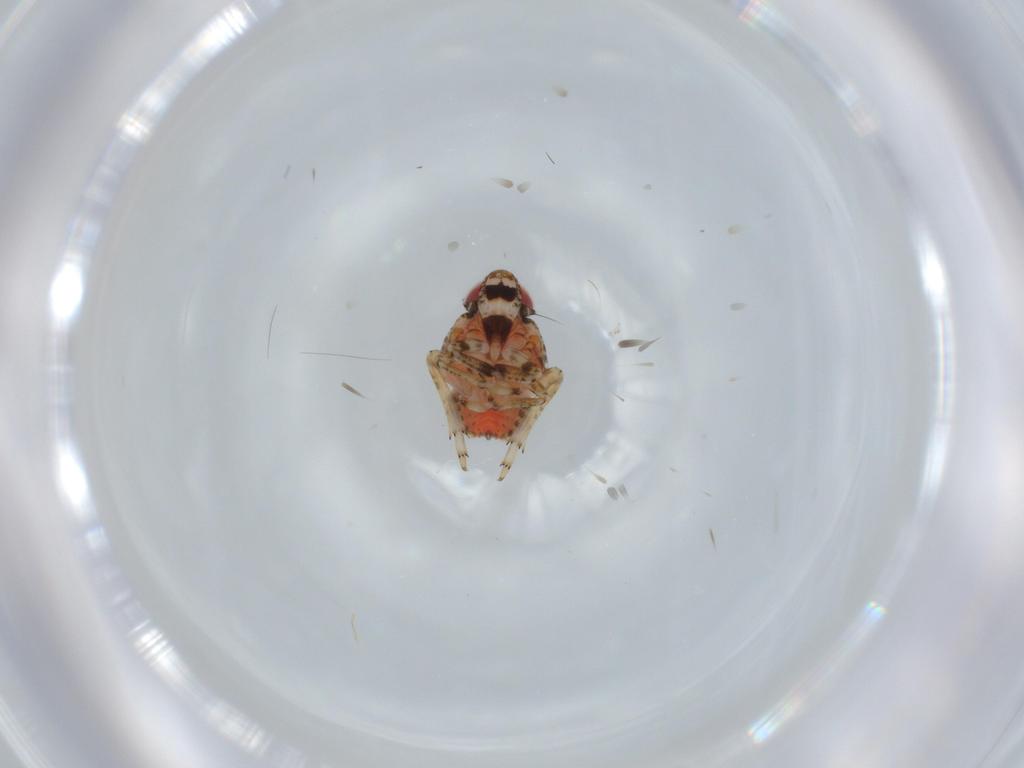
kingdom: Animalia
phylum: Arthropoda
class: Insecta
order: Hemiptera
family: Issidae
